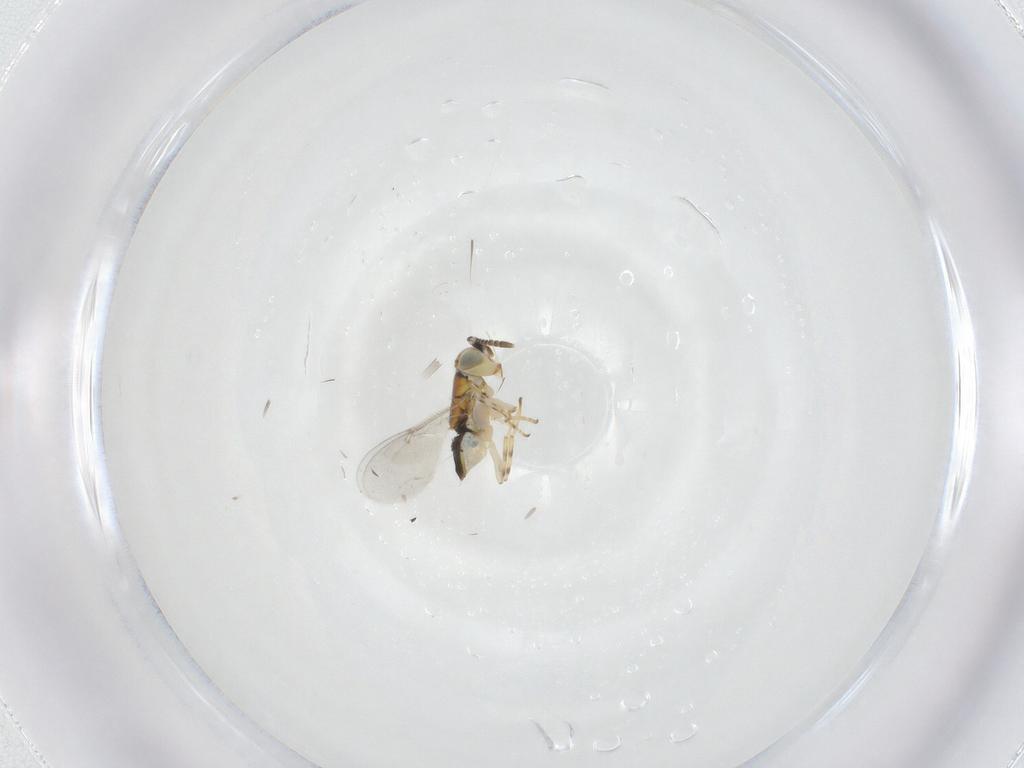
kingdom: Animalia
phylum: Arthropoda
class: Insecta
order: Hymenoptera
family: Encyrtidae
